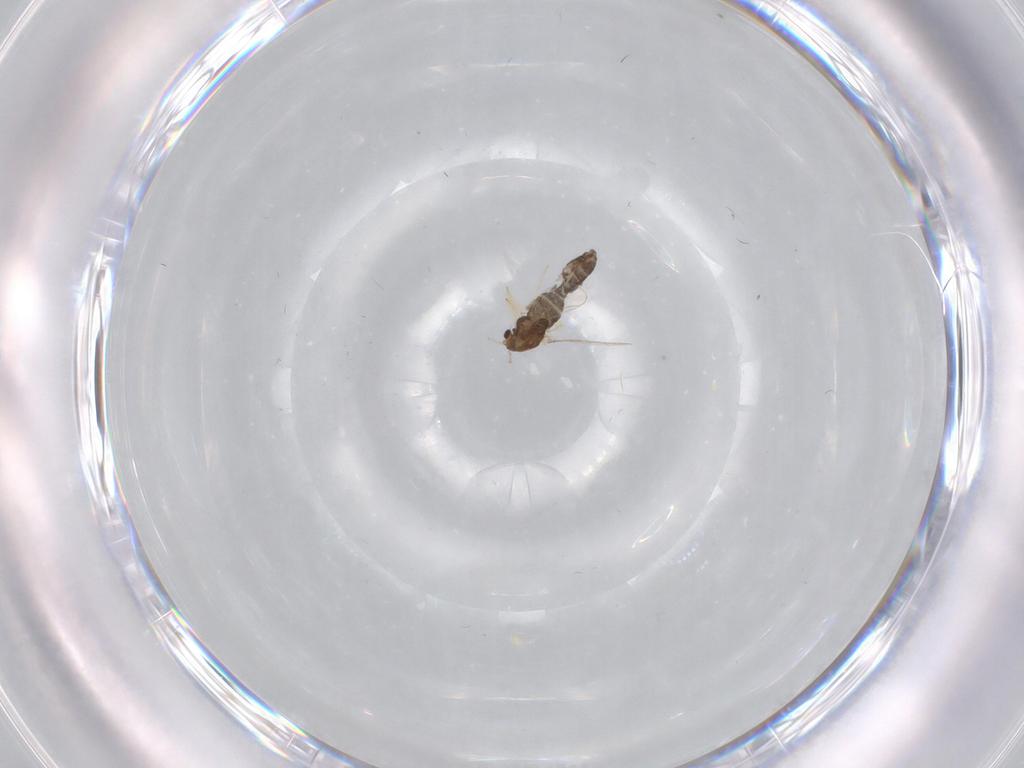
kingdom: Animalia
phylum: Arthropoda
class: Insecta
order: Diptera
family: Chironomidae
